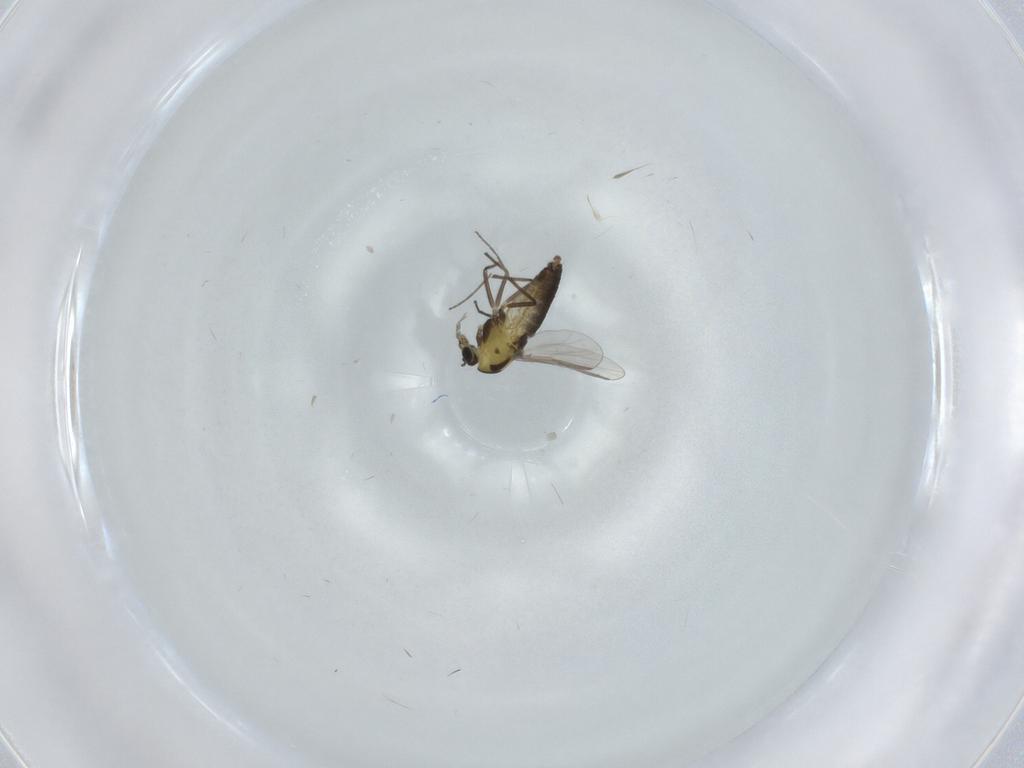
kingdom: Animalia
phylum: Arthropoda
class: Insecta
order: Diptera
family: Chironomidae
